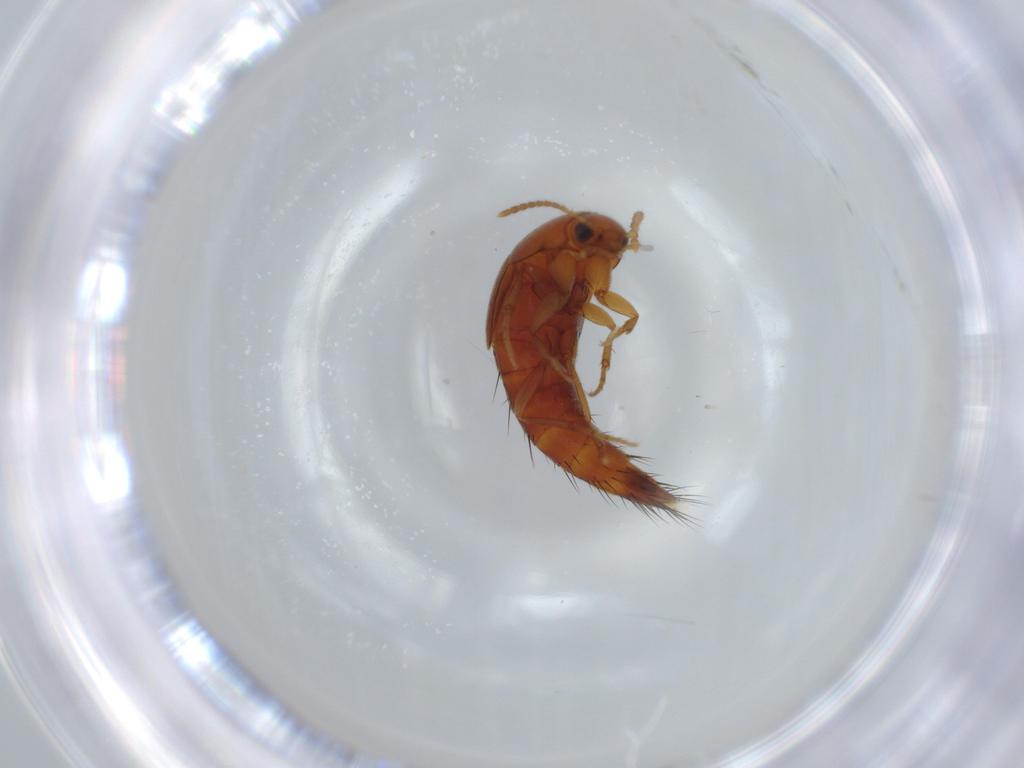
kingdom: Animalia
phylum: Arthropoda
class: Insecta
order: Coleoptera
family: Staphylinidae
